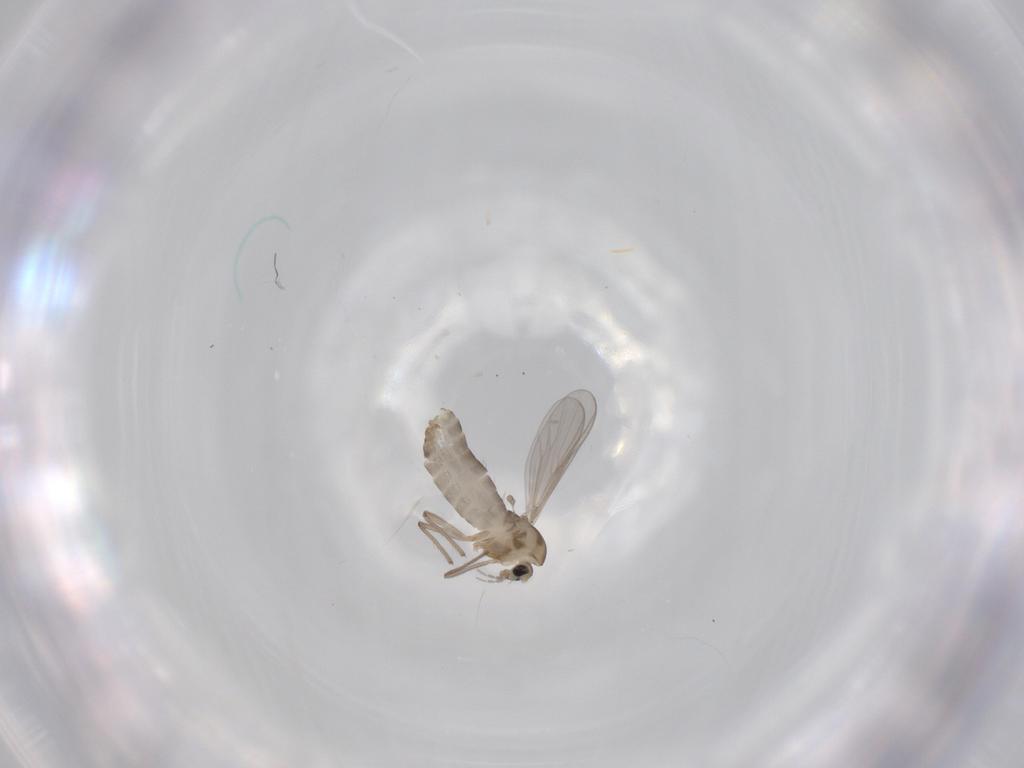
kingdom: Animalia
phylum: Arthropoda
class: Insecta
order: Diptera
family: Chironomidae
